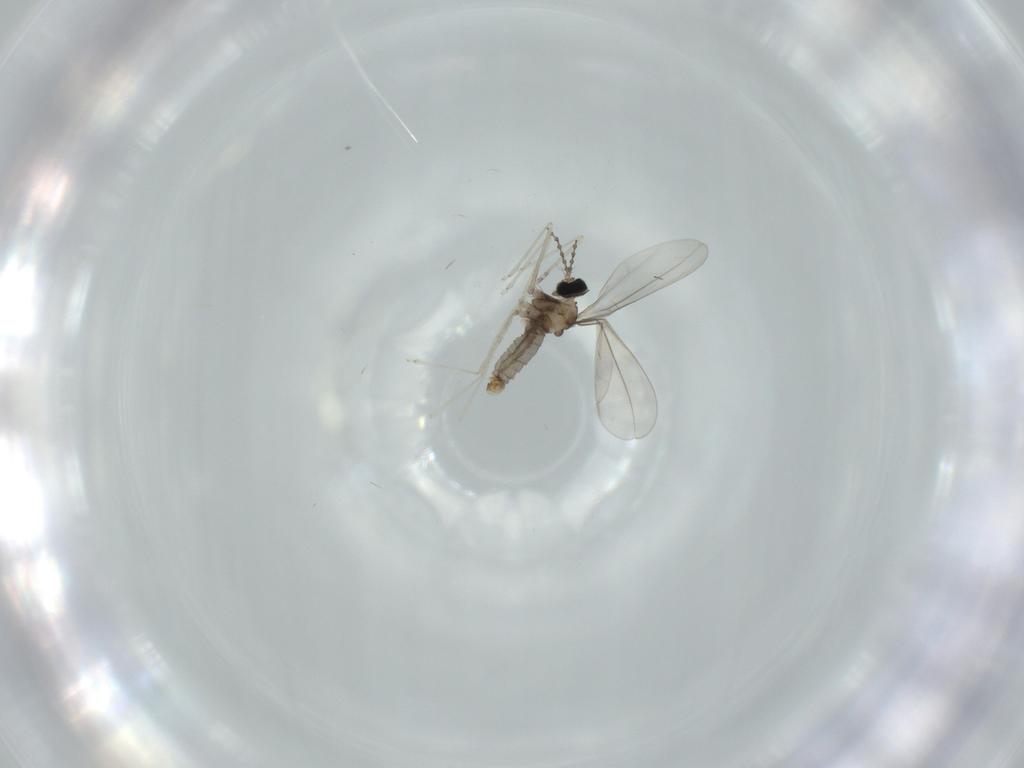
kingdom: Animalia
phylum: Arthropoda
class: Insecta
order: Diptera
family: Cecidomyiidae
